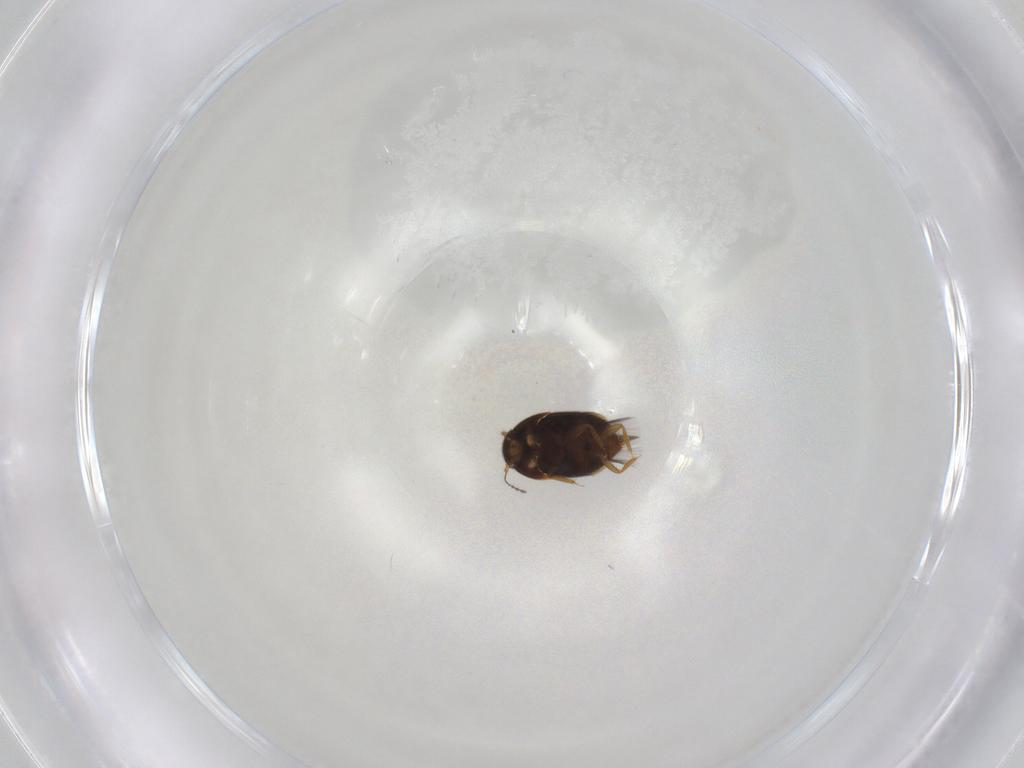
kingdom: Animalia
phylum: Arthropoda
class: Insecta
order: Coleoptera
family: Ptiliidae
